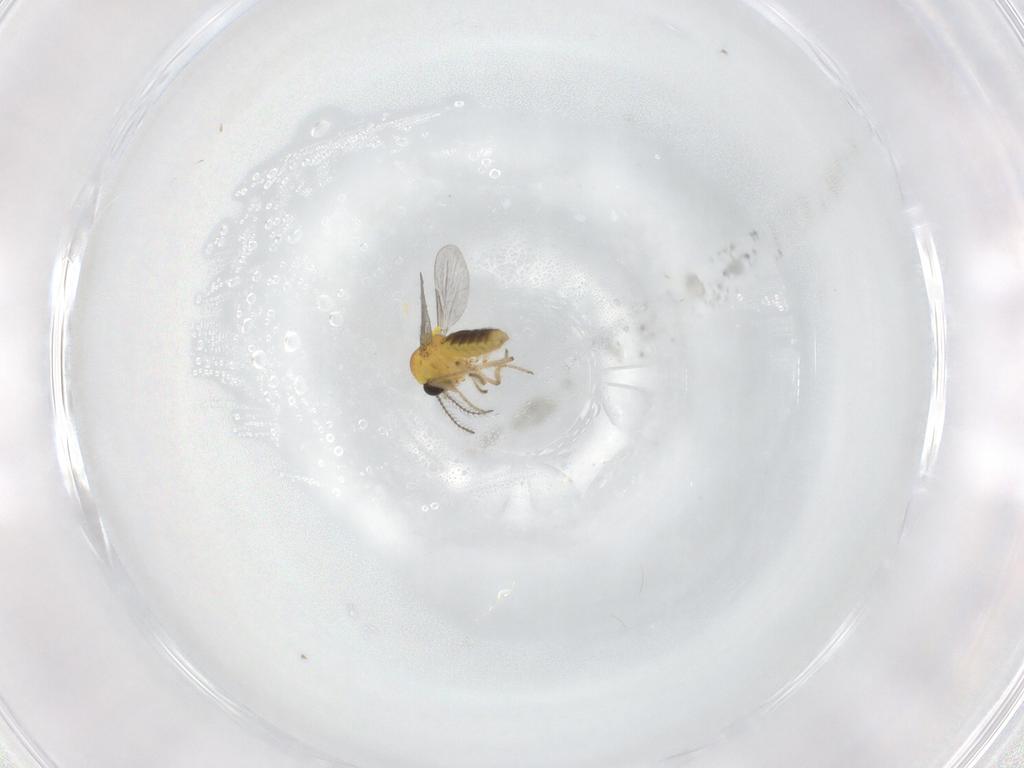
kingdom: Animalia
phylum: Arthropoda
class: Insecta
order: Diptera
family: Ceratopogonidae
